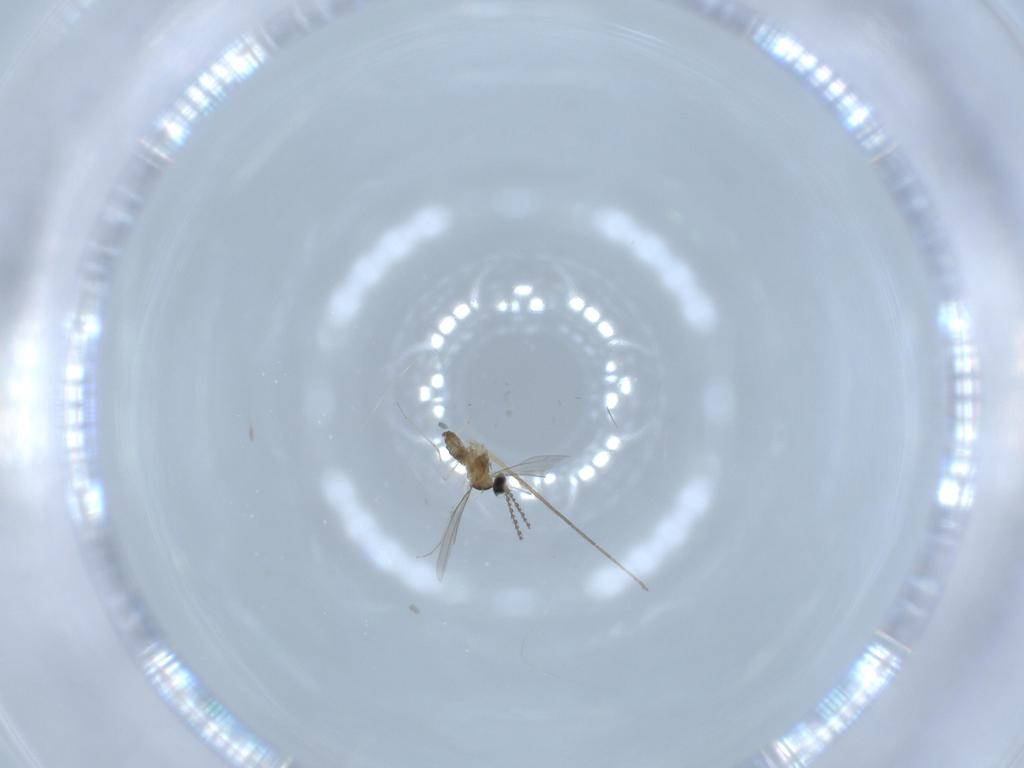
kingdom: Animalia
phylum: Arthropoda
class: Insecta
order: Diptera
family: Cecidomyiidae
